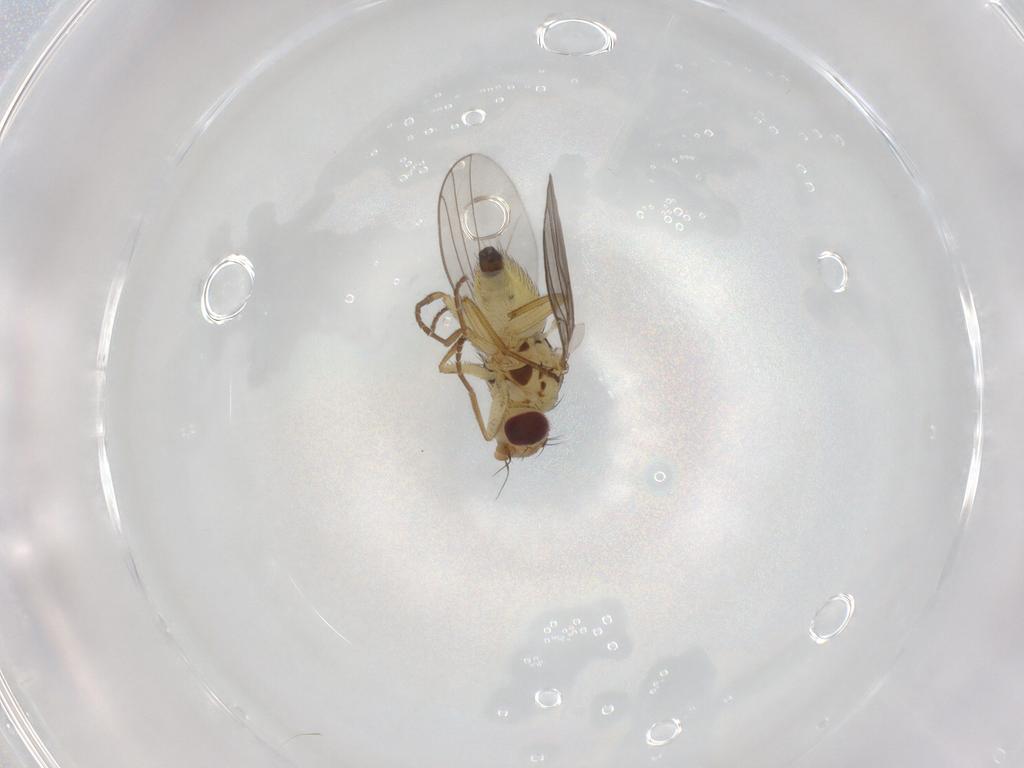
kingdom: Animalia
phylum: Arthropoda
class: Insecta
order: Diptera
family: Agromyzidae
